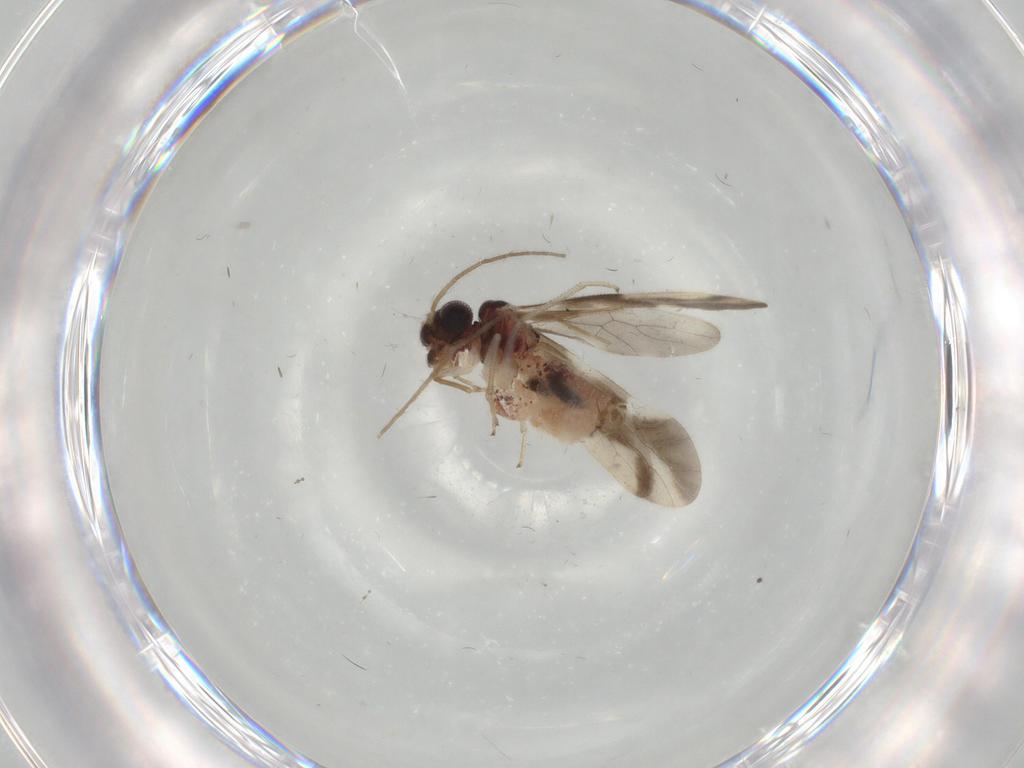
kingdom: Animalia
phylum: Arthropoda
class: Insecta
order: Psocodea
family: Caeciliusidae
